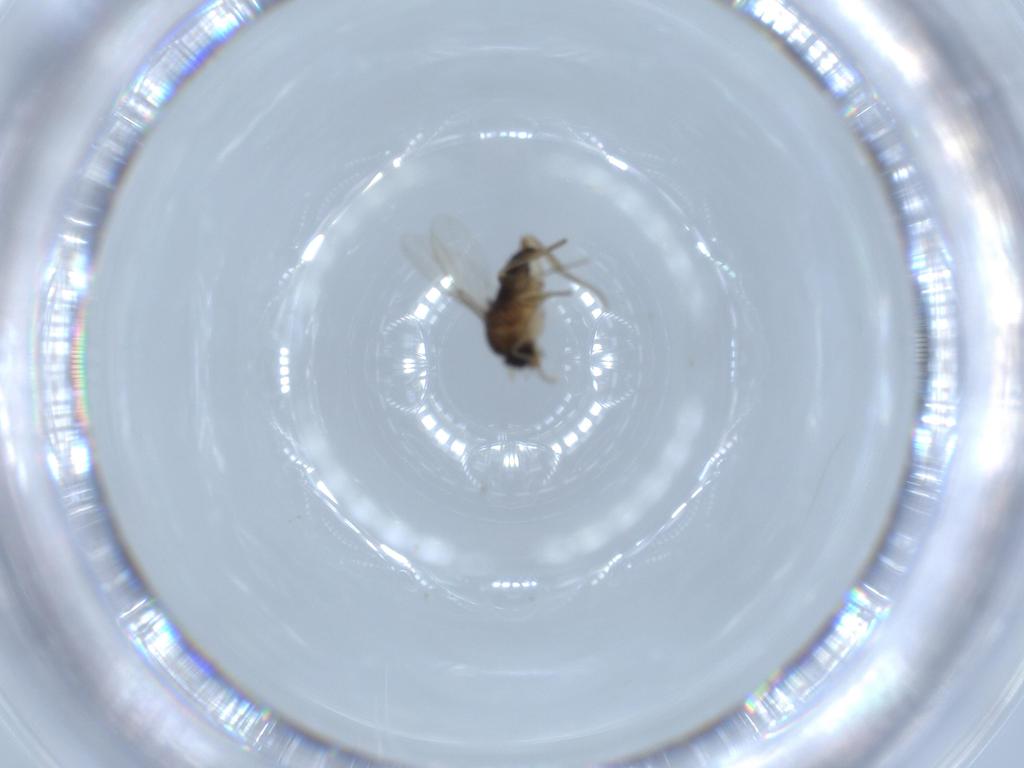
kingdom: Animalia
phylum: Arthropoda
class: Insecta
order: Diptera
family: Phoridae
